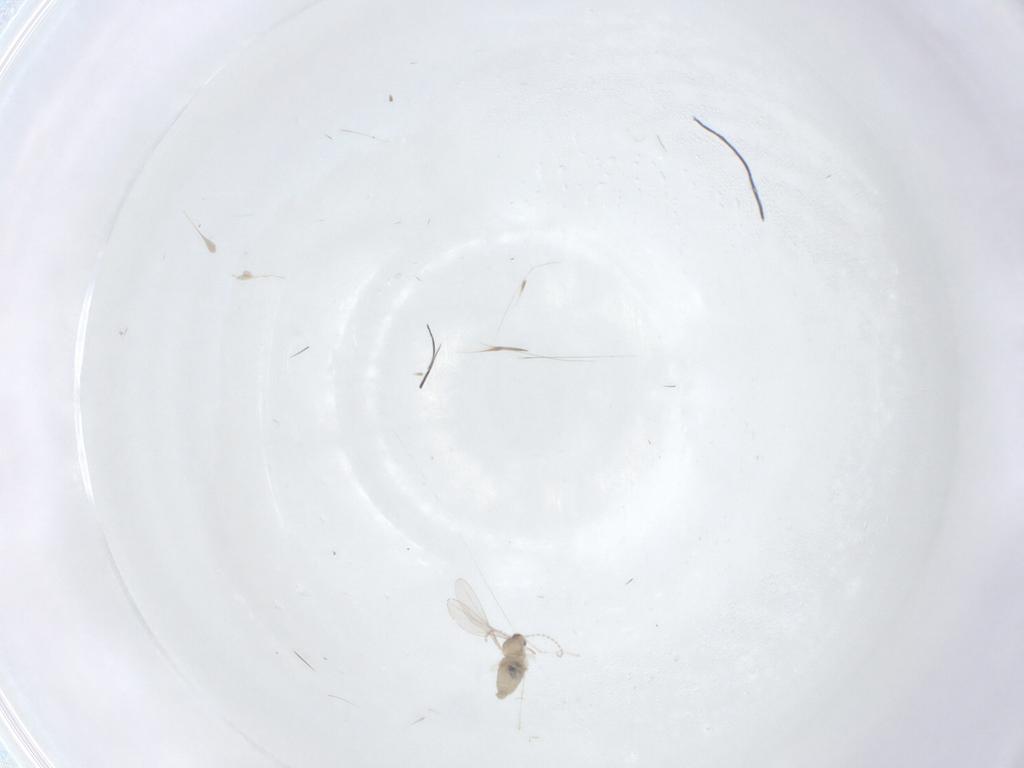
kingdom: Animalia
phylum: Arthropoda
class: Insecta
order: Diptera
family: Cecidomyiidae
